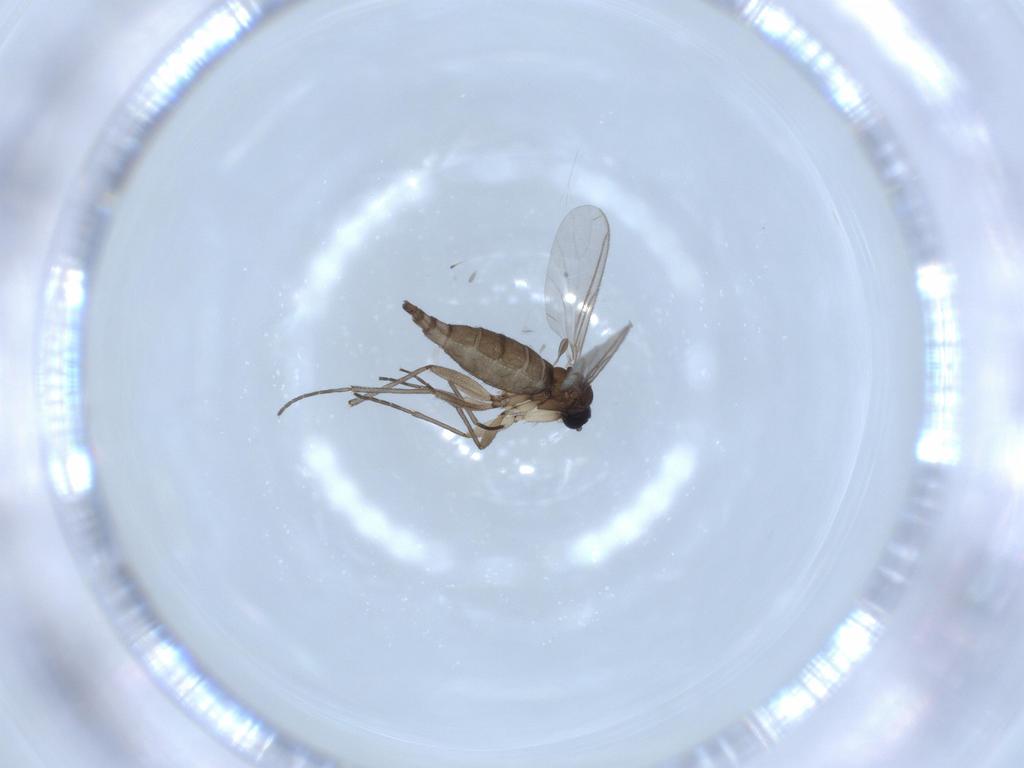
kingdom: Animalia
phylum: Arthropoda
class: Insecta
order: Diptera
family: Sciaridae
